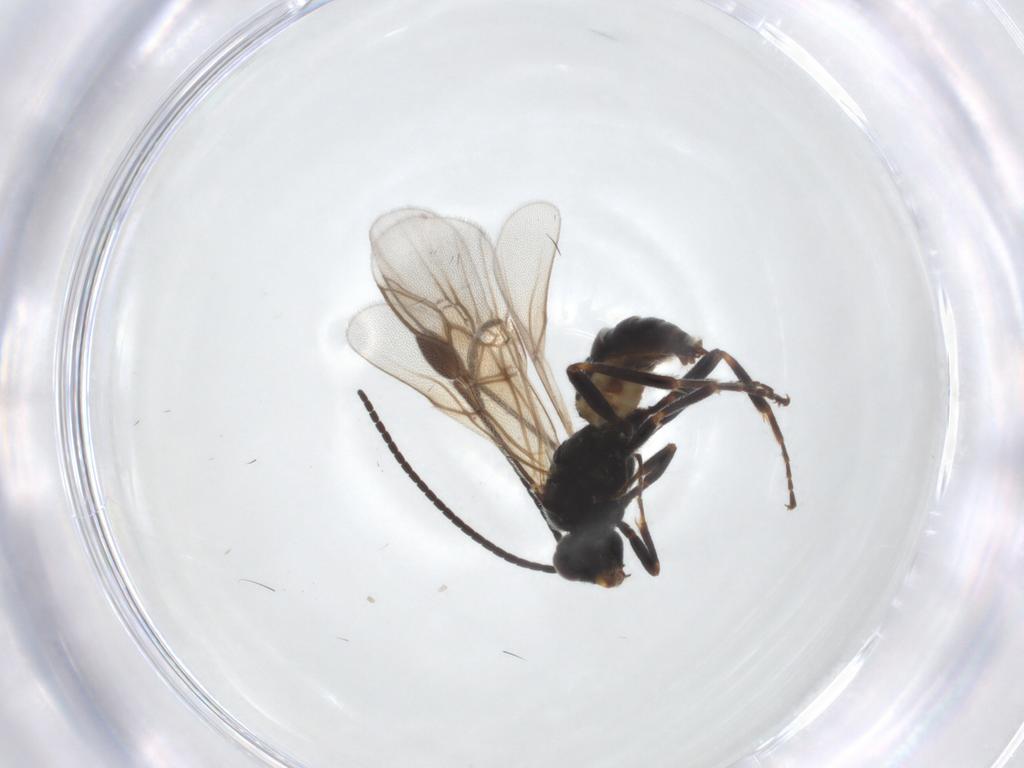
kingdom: Animalia
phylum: Arthropoda
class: Insecta
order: Hymenoptera
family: Braconidae
